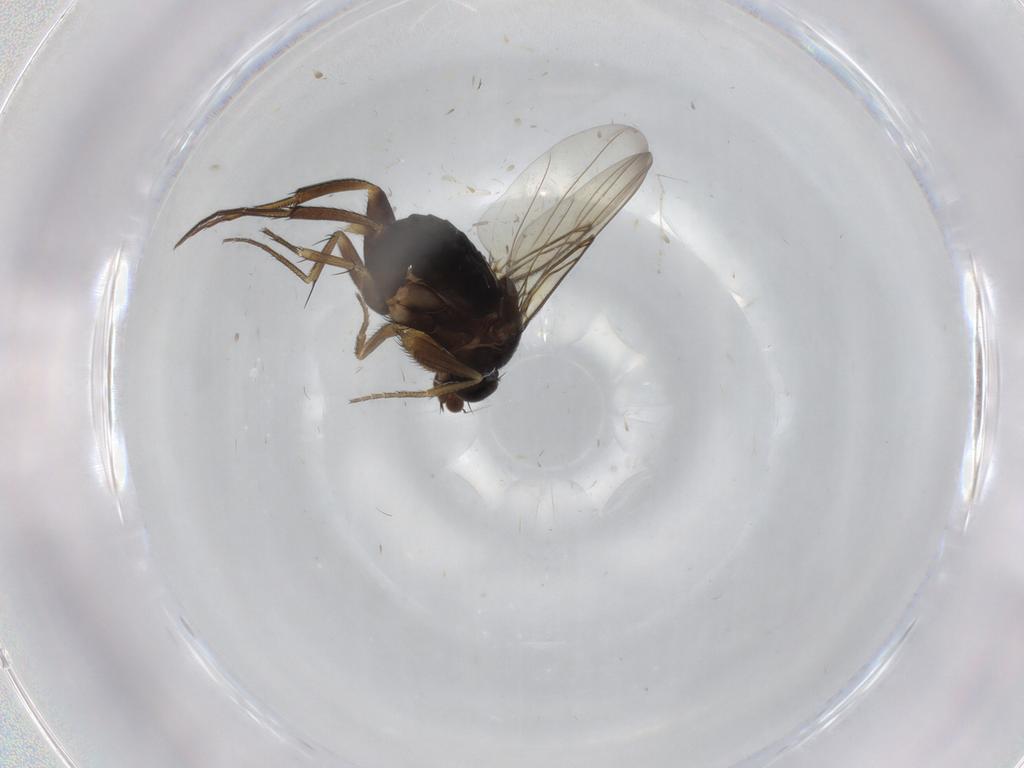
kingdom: Animalia
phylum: Arthropoda
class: Insecta
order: Diptera
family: Phoridae
